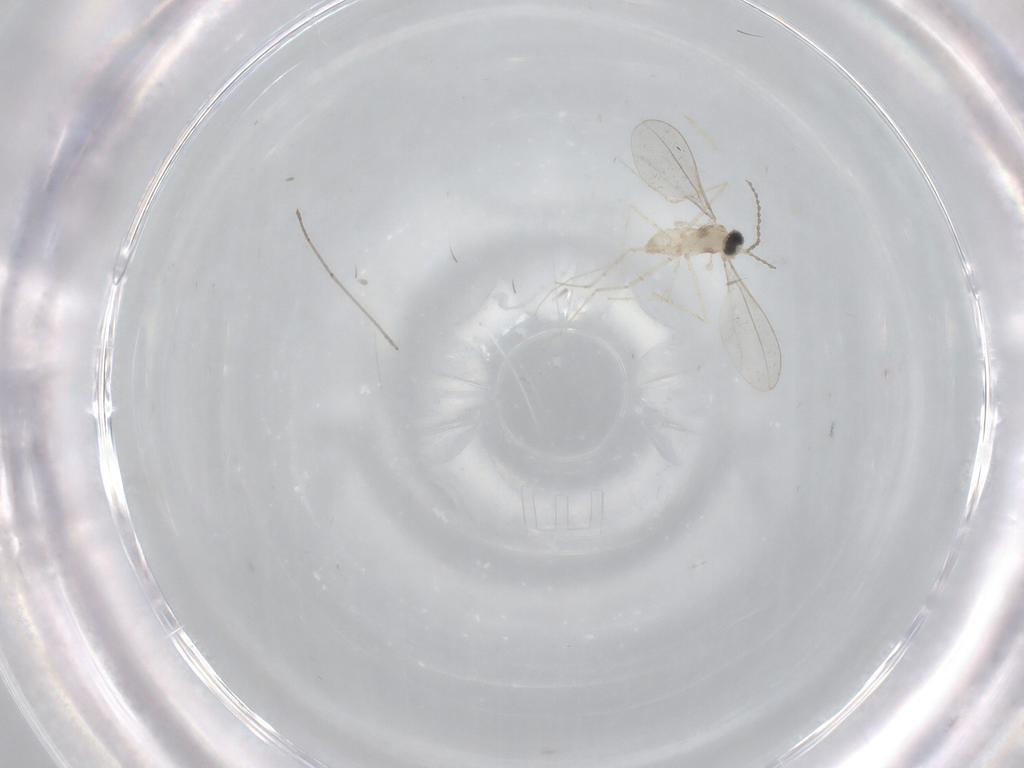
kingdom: Animalia
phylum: Arthropoda
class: Insecta
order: Diptera
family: Cecidomyiidae
